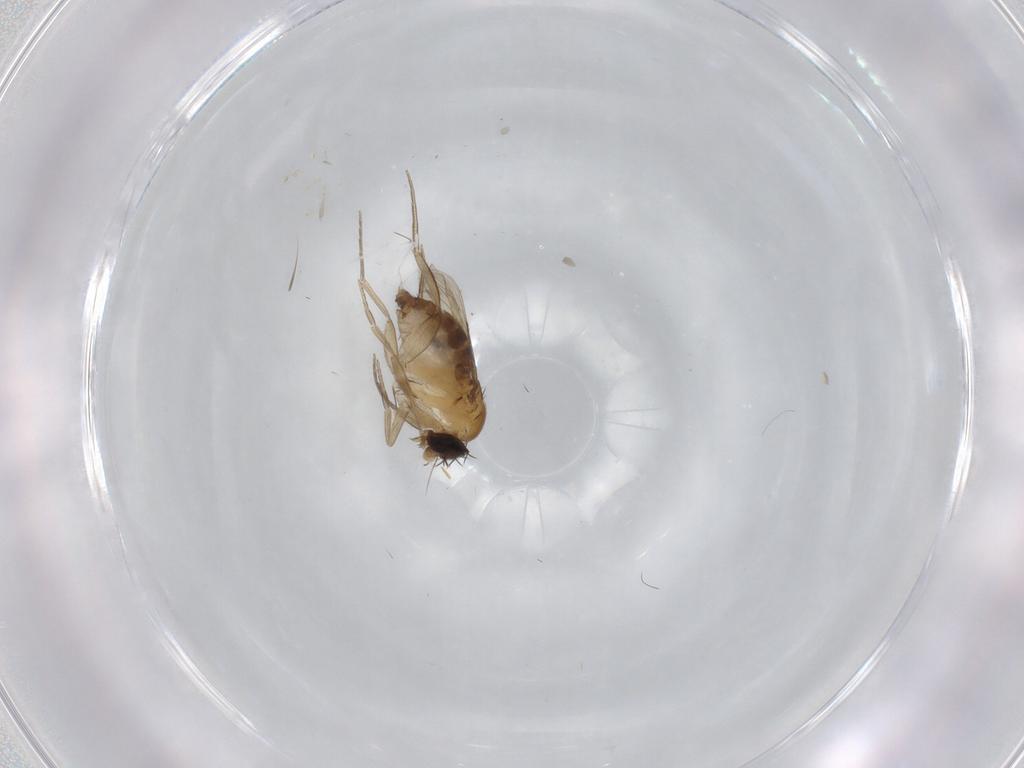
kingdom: Animalia
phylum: Arthropoda
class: Insecta
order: Diptera
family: Phoridae
